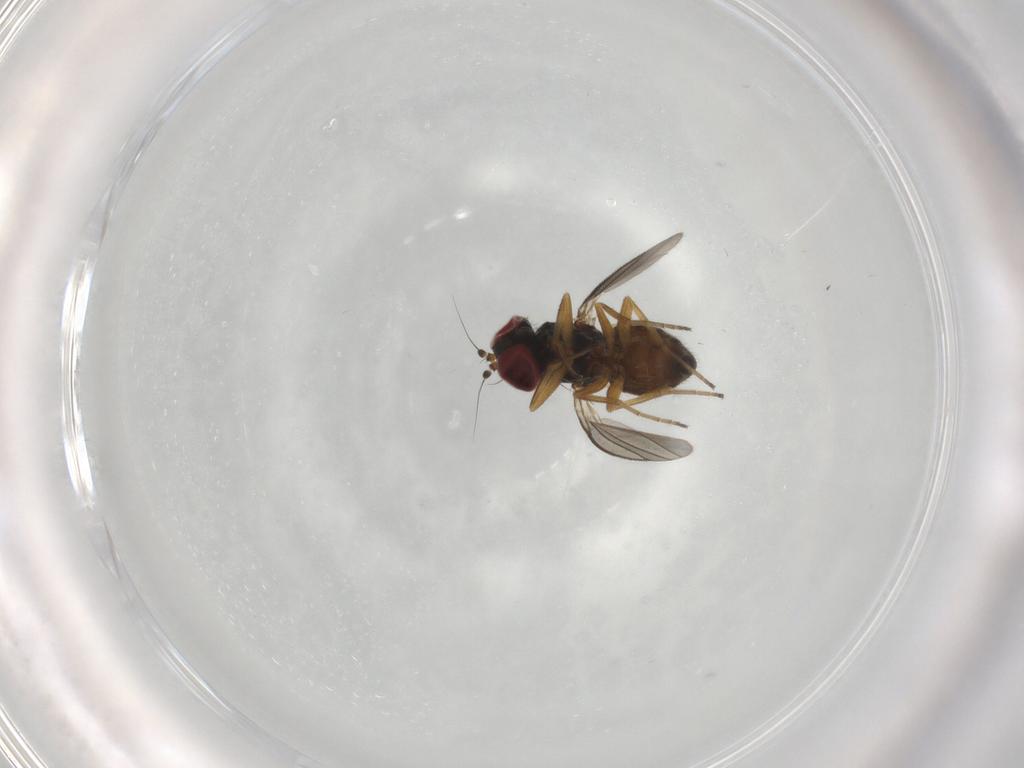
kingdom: Animalia
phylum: Arthropoda
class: Insecta
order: Diptera
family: Dolichopodidae
